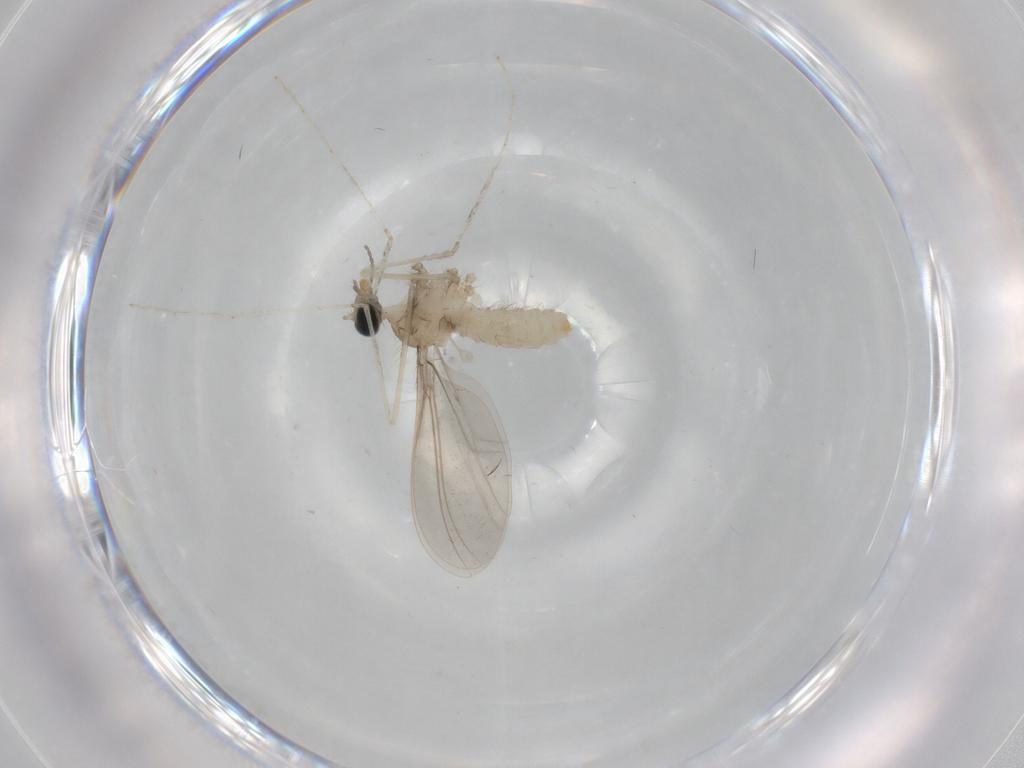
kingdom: Animalia
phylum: Arthropoda
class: Insecta
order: Diptera
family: Cecidomyiidae
